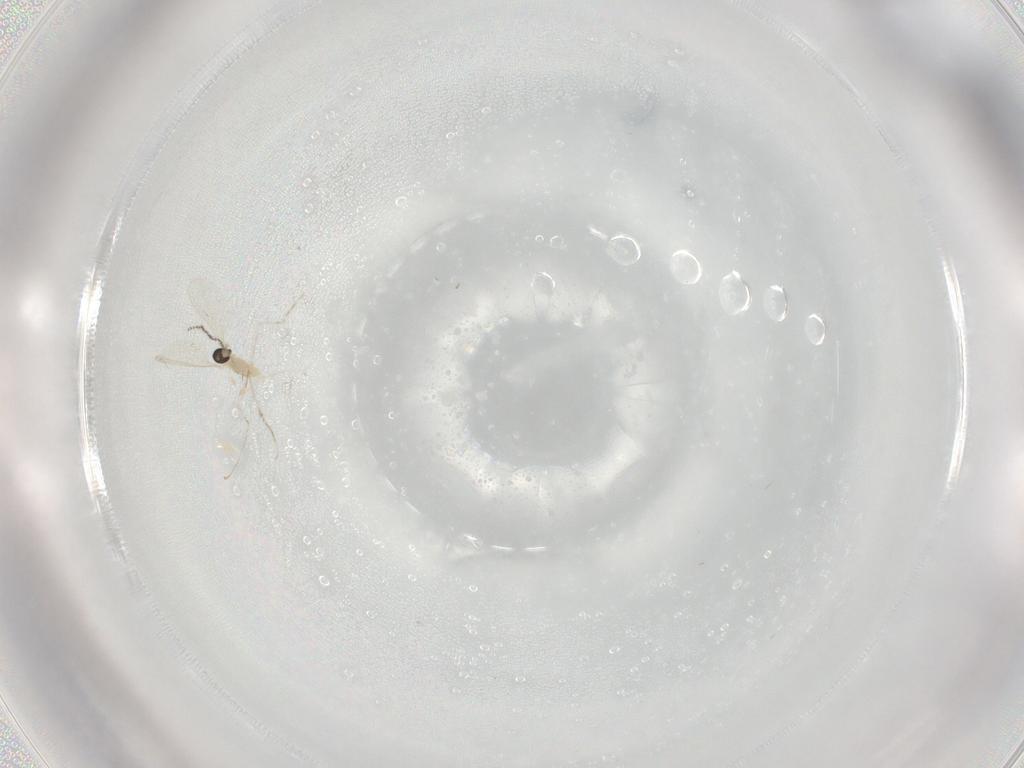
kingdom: Animalia
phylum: Arthropoda
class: Insecta
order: Diptera
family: Cecidomyiidae
